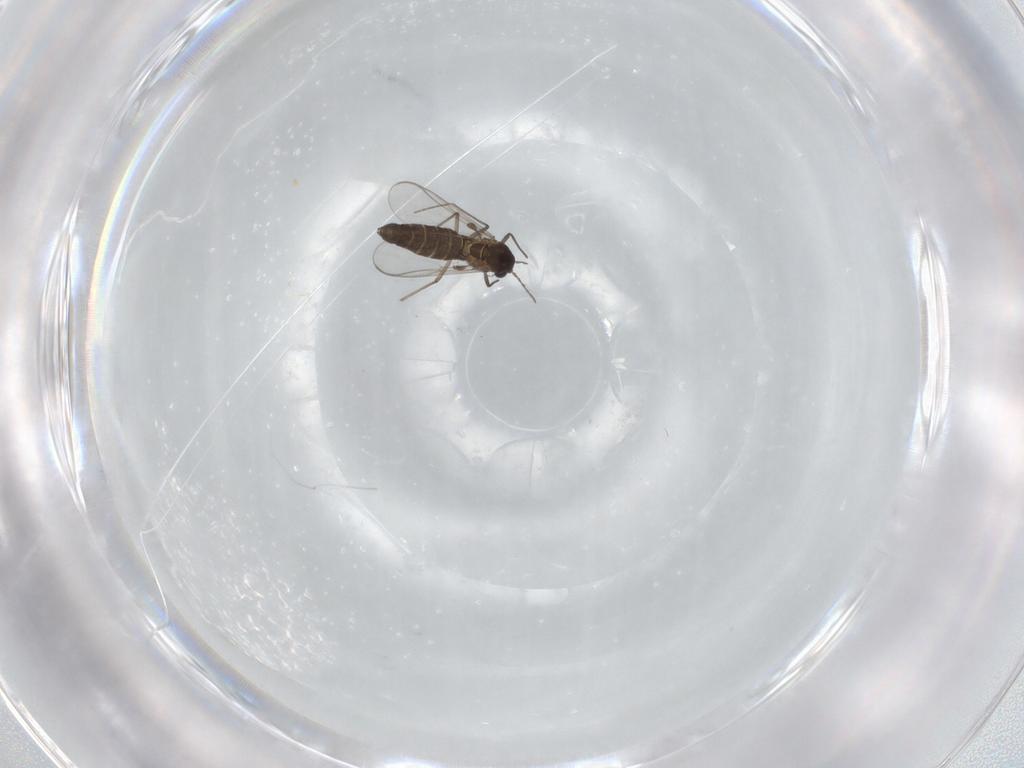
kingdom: Animalia
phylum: Arthropoda
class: Insecta
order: Diptera
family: Chironomidae
